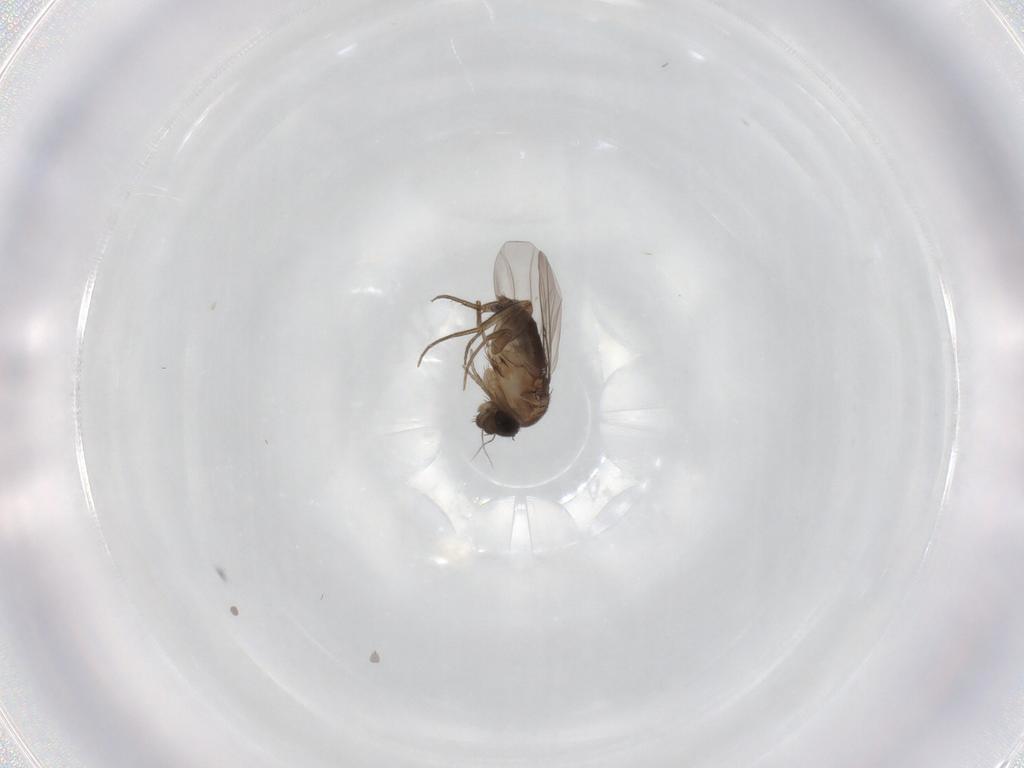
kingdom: Animalia
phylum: Arthropoda
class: Insecta
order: Diptera
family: Phoridae
